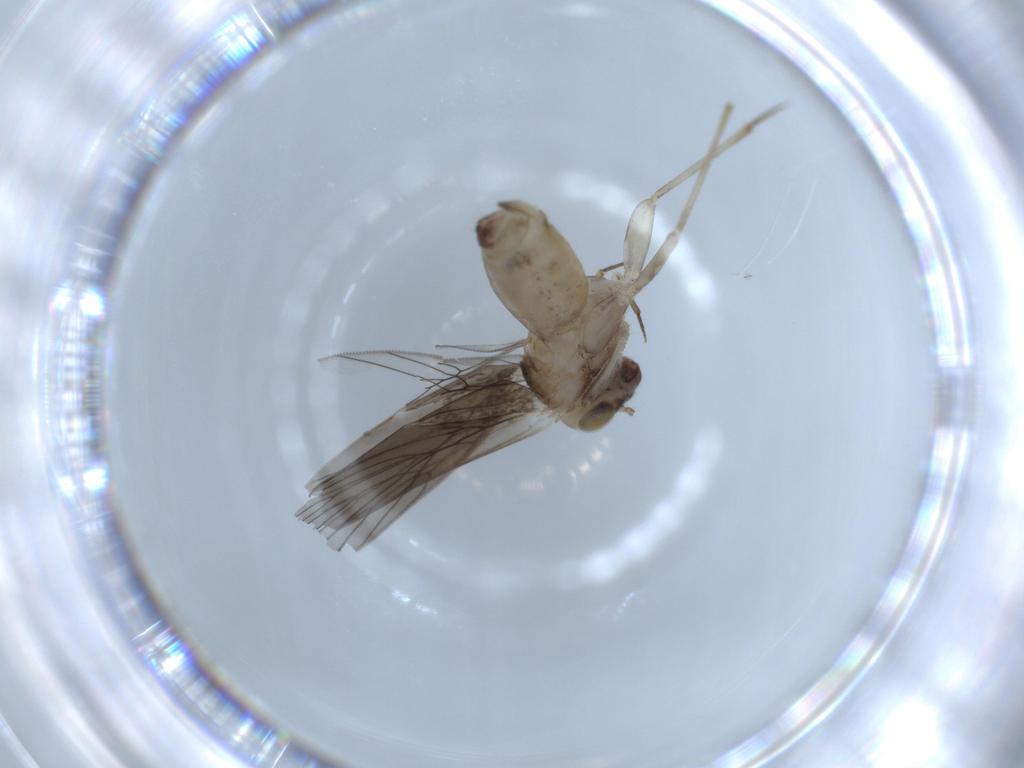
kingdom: Animalia
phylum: Arthropoda
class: Insecta
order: Psocodea
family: Lepidopsocidae
